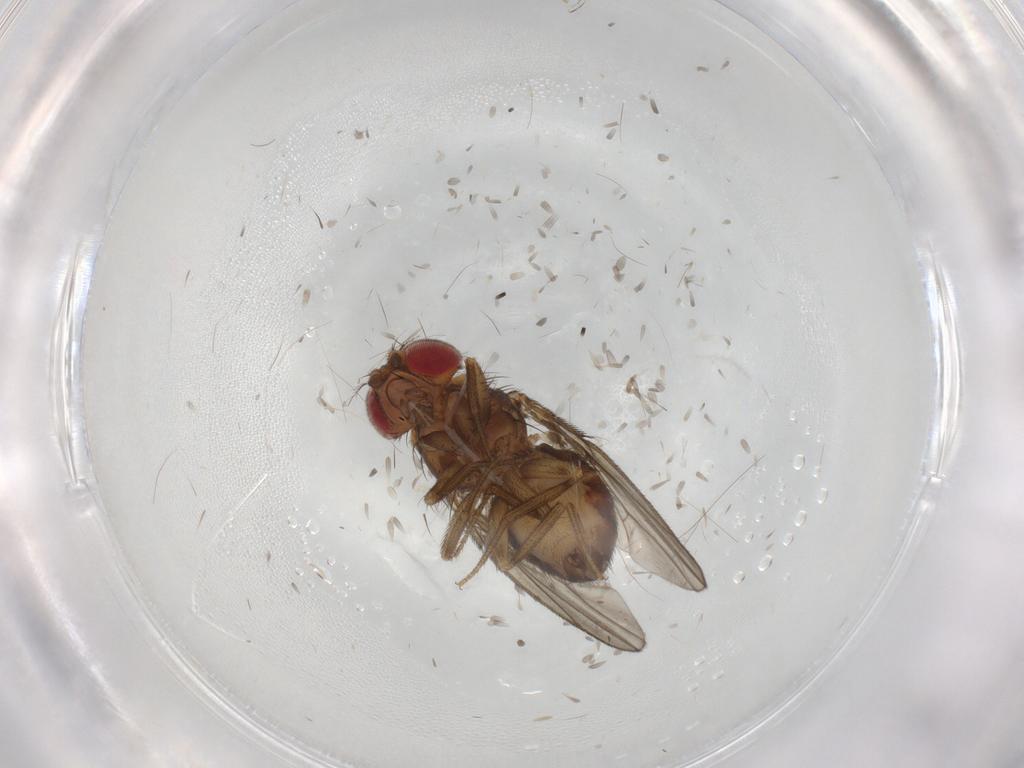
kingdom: Animalia
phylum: Arthropoda
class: Insecta
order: Diptera
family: Drosophilidae
